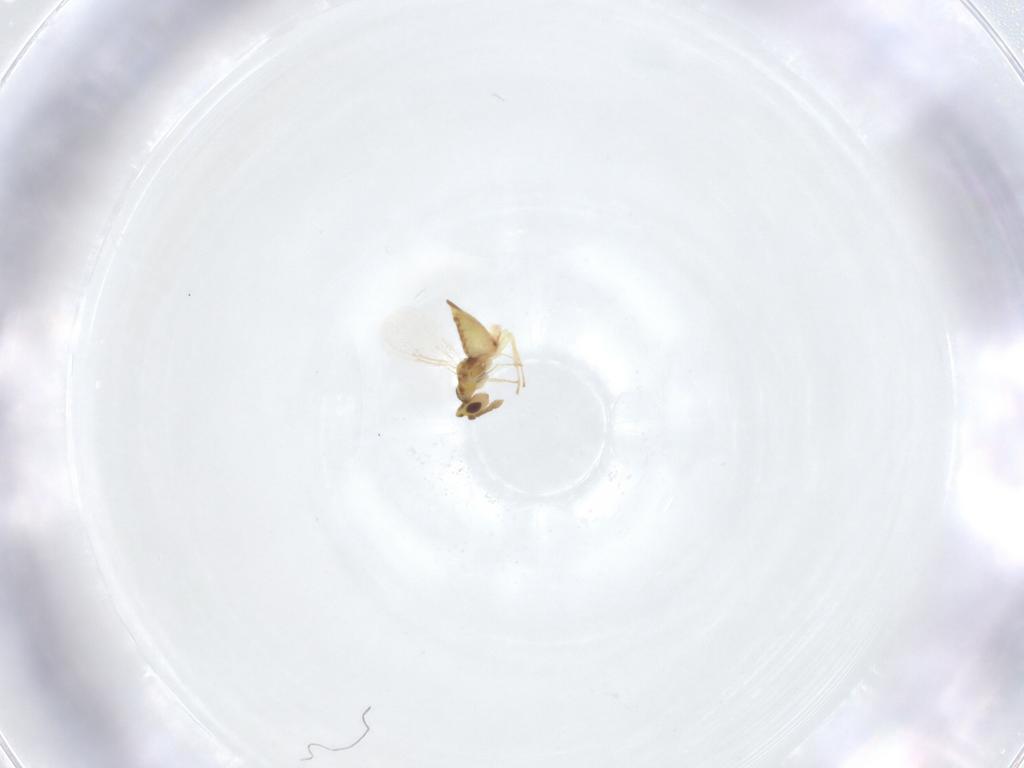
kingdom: Animalia
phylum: Arthropoda
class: Insecta
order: Hymenoptera
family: Eulophidae
